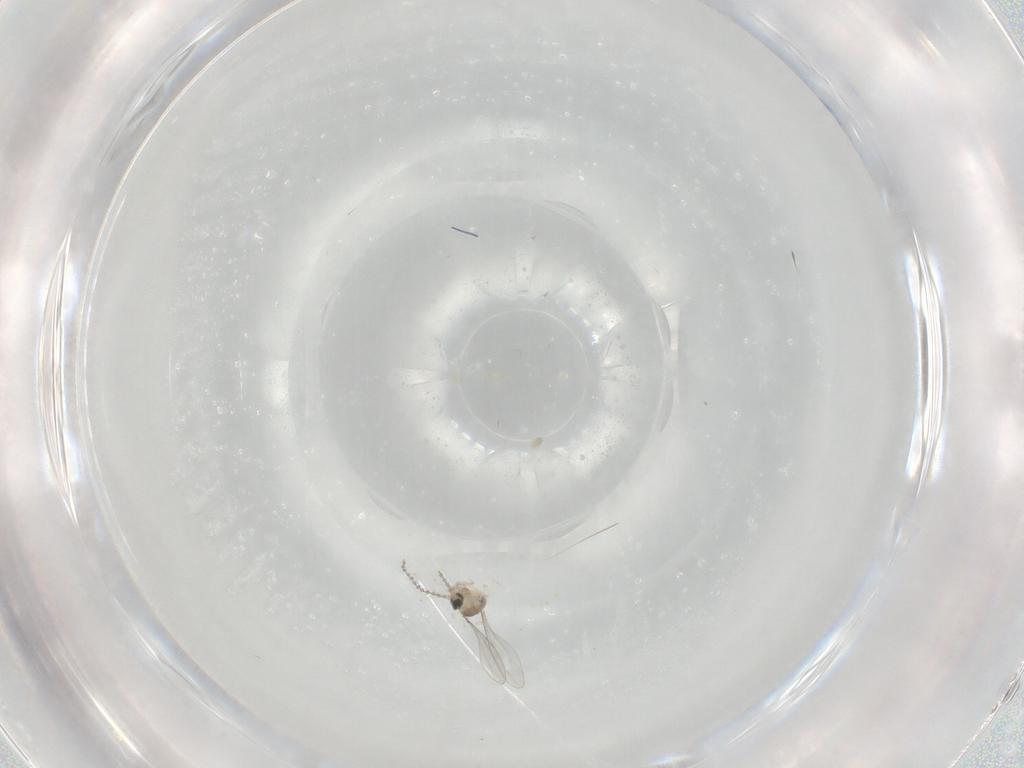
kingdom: Animalia
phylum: Arthropoda
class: Insecta
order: Diptera
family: Cecidomyiidae
